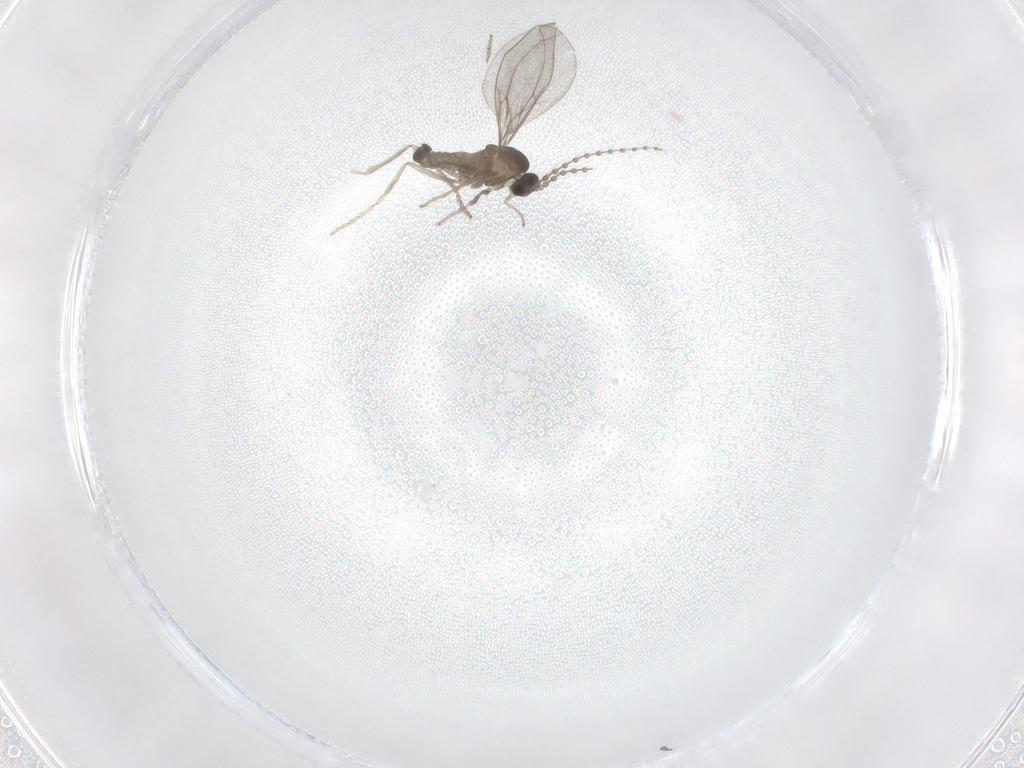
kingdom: Animalia
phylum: Arthropoda
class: Insecta
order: Diptera
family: Cecidomyiidae
